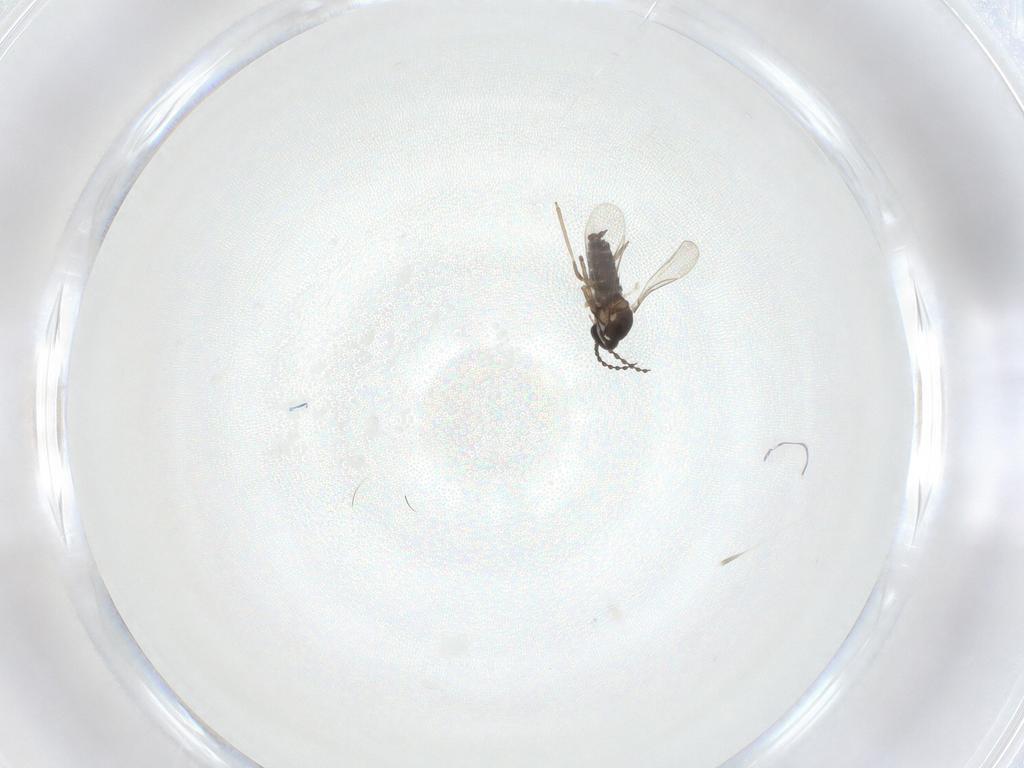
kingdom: Animalia
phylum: Arthropoda
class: Insecta
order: Diptera
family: Cecidomyiidae
